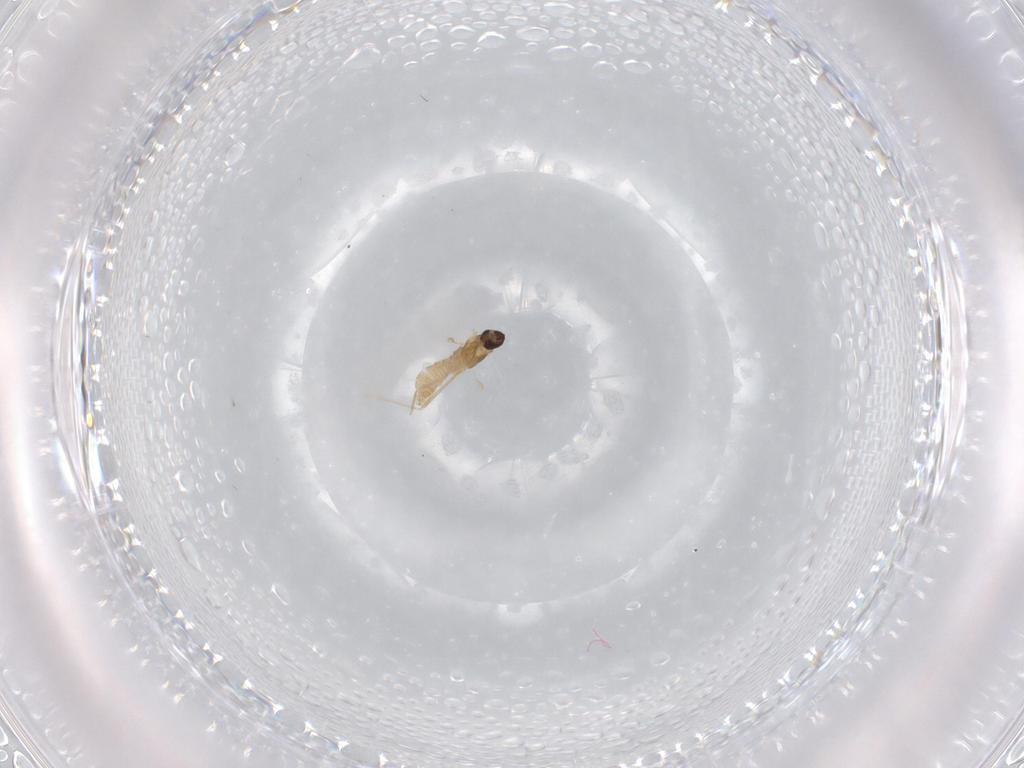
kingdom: Animalia
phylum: Arthropoda
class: Insecta
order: Diptera
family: Cecidomyiidae
